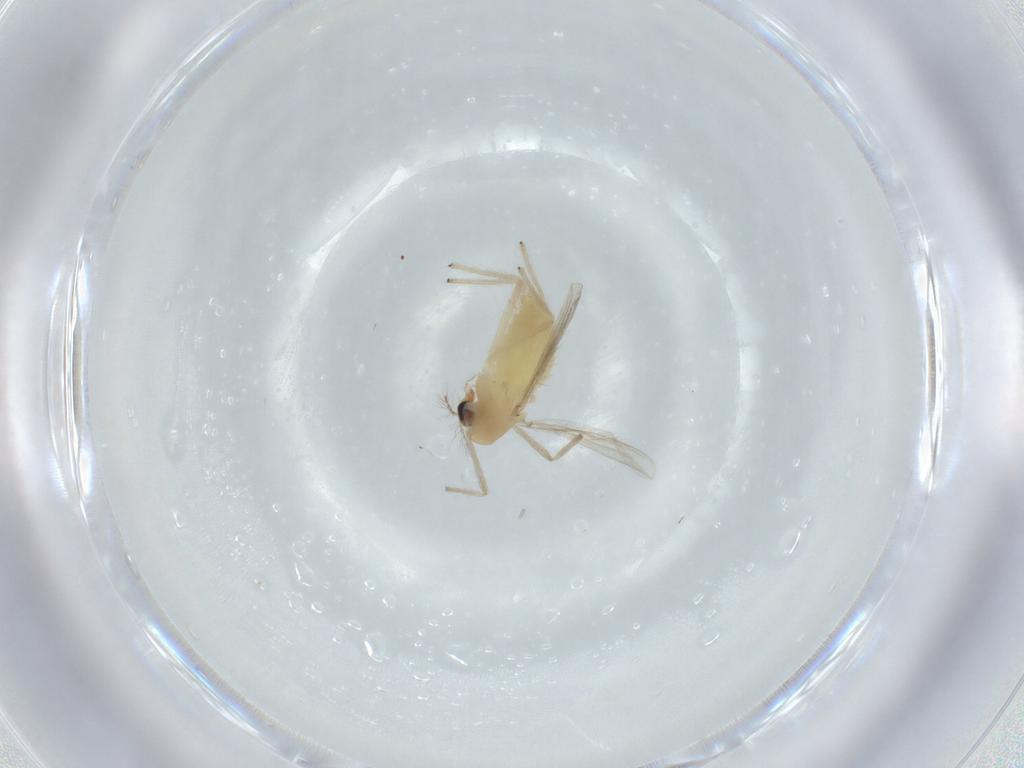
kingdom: Animalia
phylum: Arthropoda
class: Insecta
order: Diptera
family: Chironomidae
